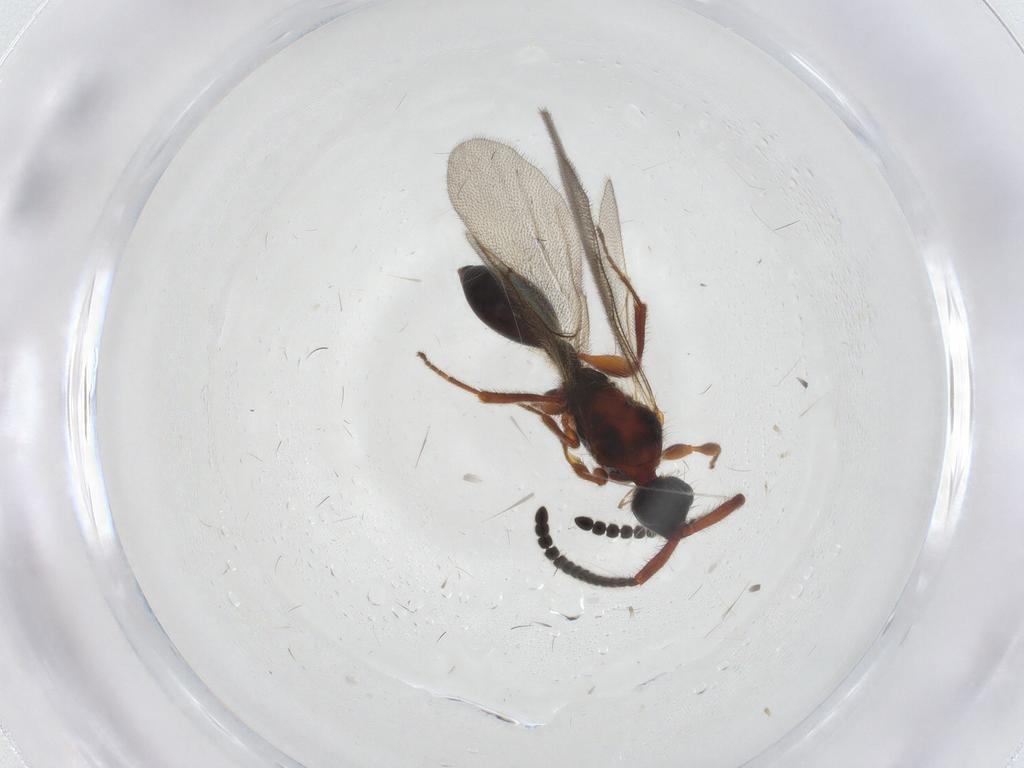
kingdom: Animalia
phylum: Arthropoda
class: Insecta
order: Hymenoptera
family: Diapriidae
